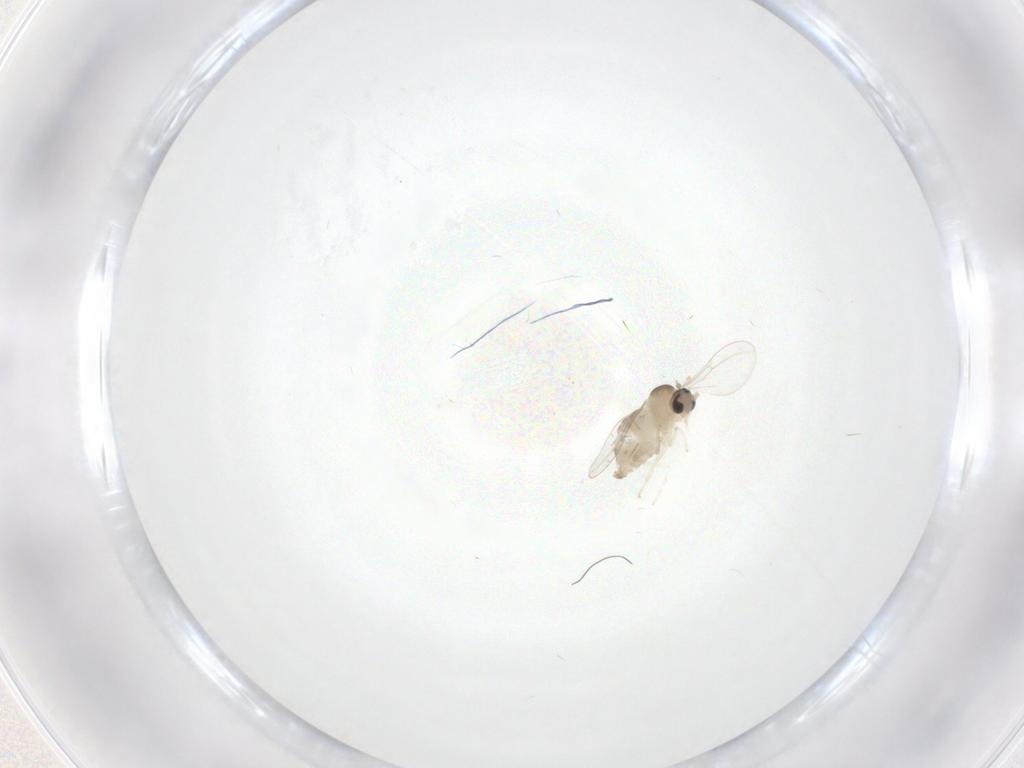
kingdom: Animalia
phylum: Arthropoda
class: Insecta
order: Diptera
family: Cecidomyiidae
